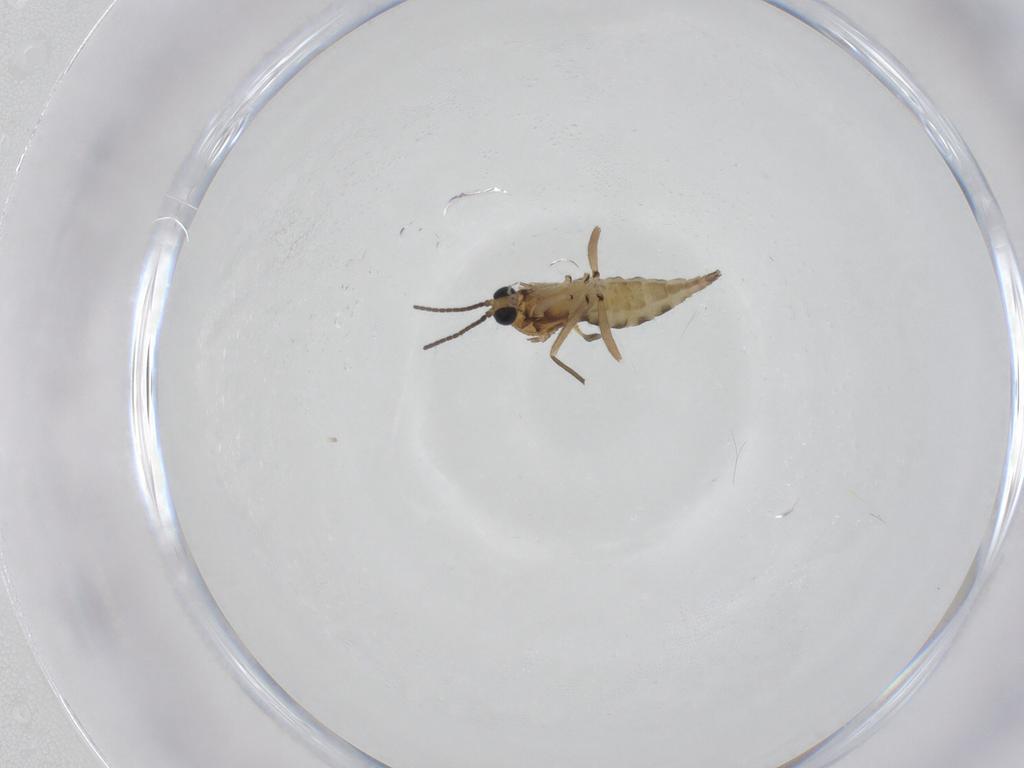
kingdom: Animalia
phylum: Arthropoda
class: Insecta
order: Diptera
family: Sciaridae
